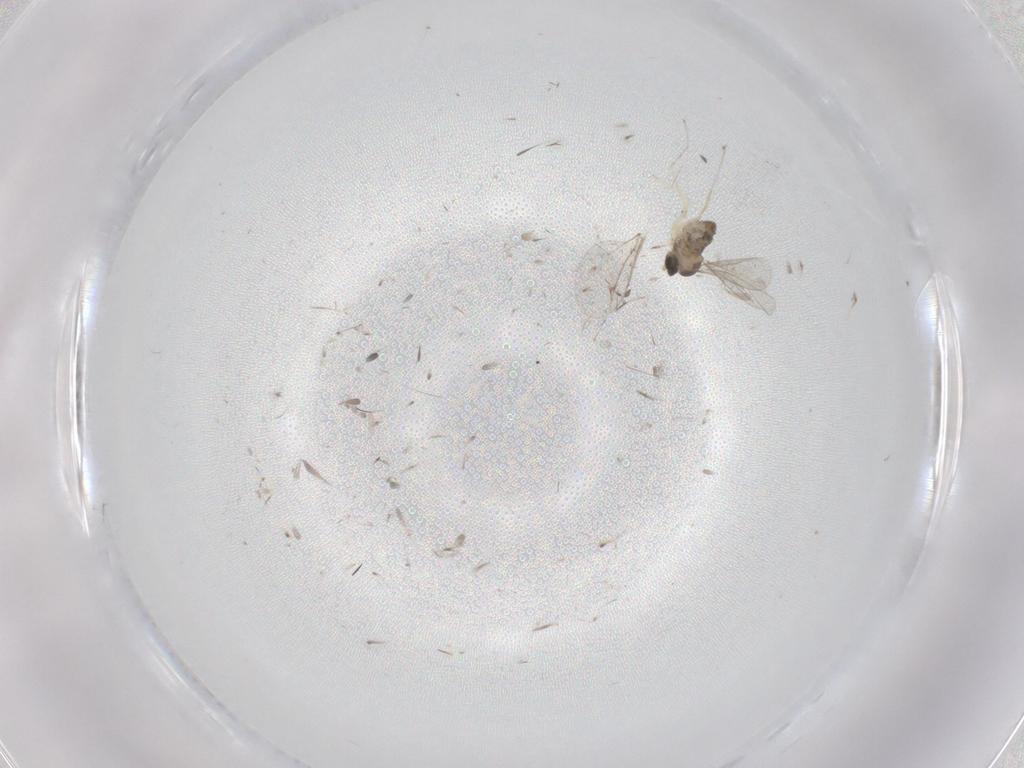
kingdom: Animalia
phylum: Arthropoda
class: Insecta
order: Diptera
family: Cecidomyiidae
